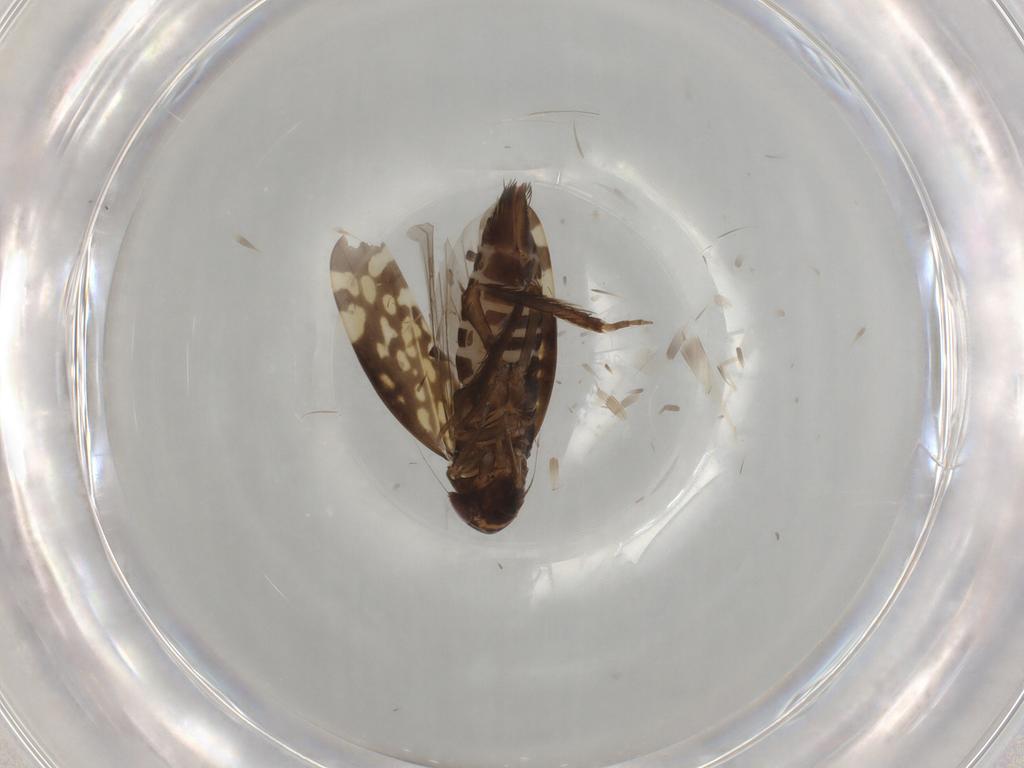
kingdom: Animalia
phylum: Arthropoda
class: Insecta
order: Hemiptera
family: Cicadellidae
